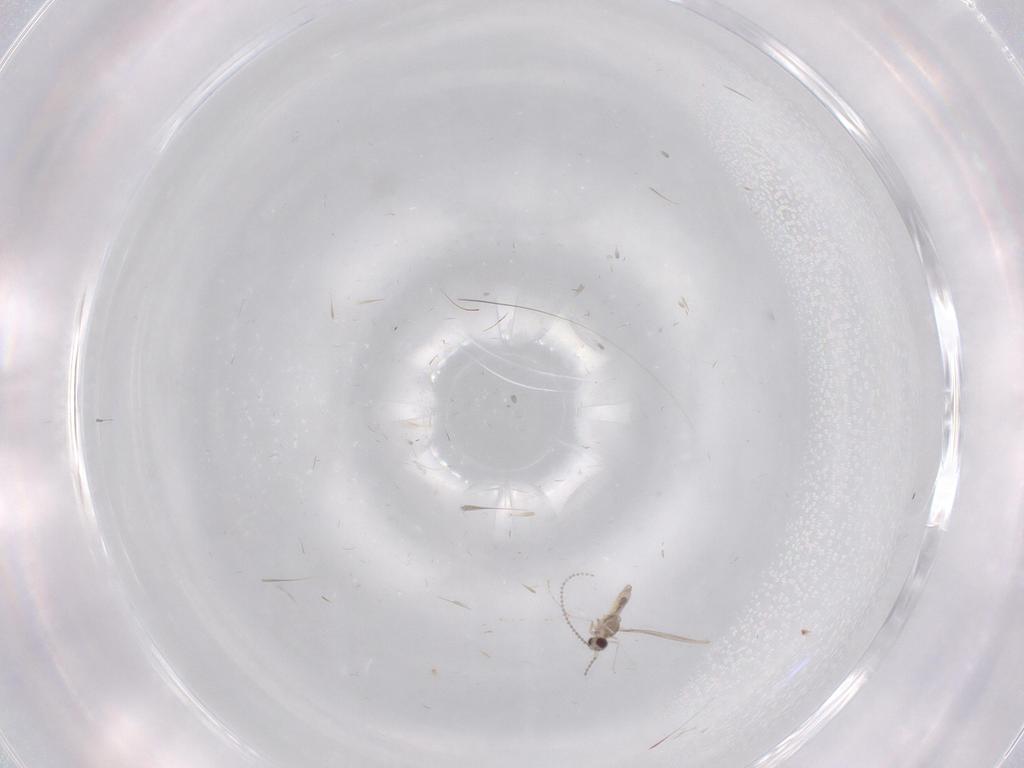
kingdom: Animalia
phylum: Arthropoda
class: Insecta
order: Diptera
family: Cecidomyiidae
